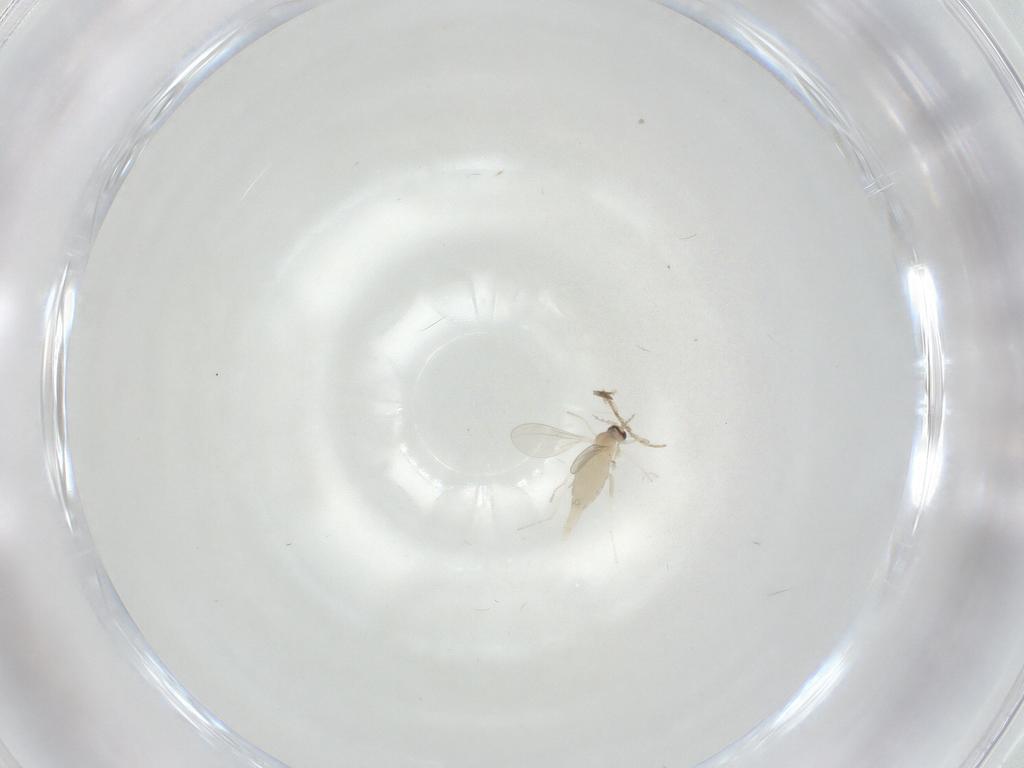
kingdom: Animalia
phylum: Arthropoda
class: Insecta
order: Diptera
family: Cecidomyiidae
